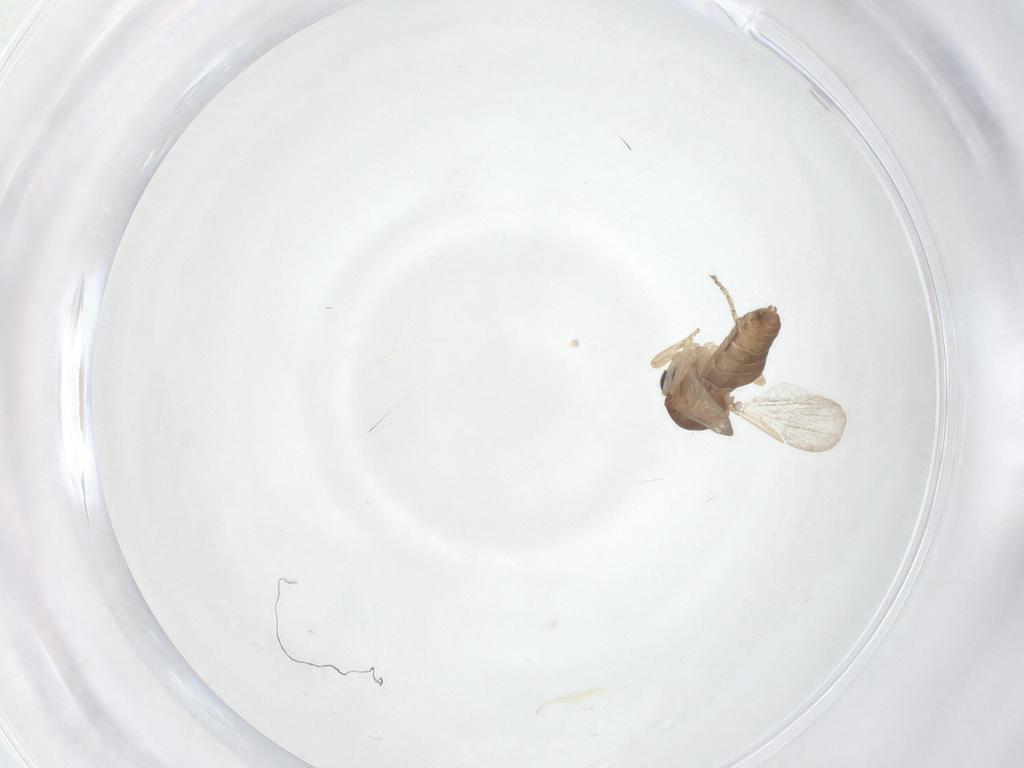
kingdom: Animalia
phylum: Arthropoda
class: Insecta
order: Diptera
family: Ceratopogonidae
